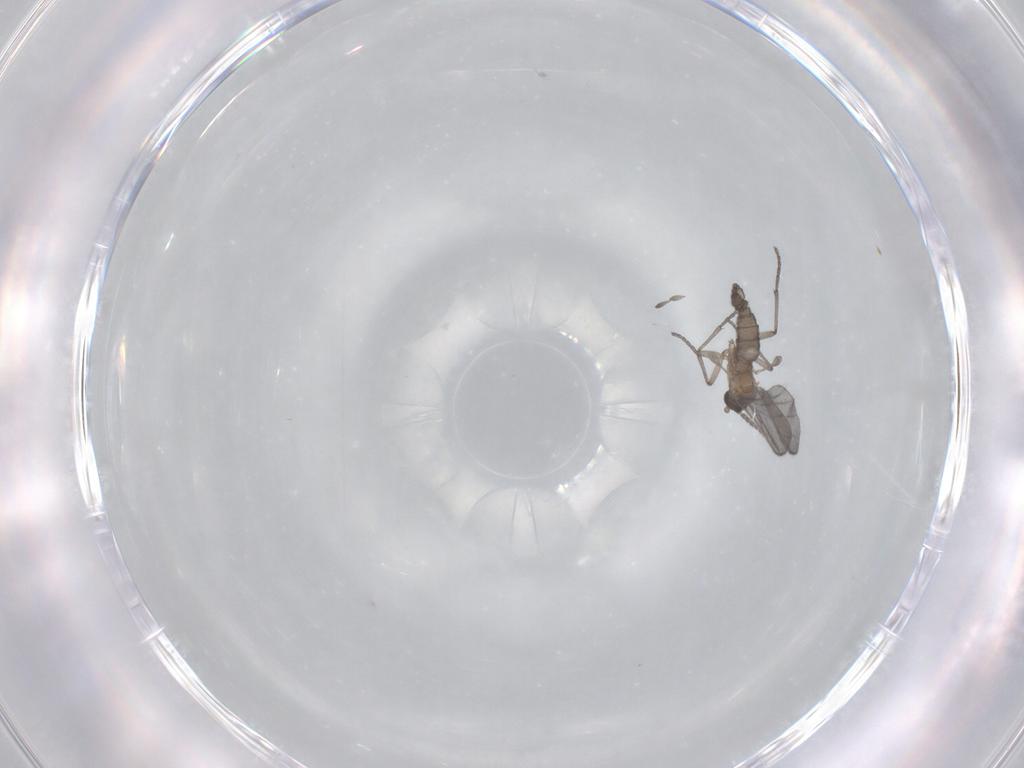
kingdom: Animalia
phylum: Arthropoda
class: Insecta
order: Diptera
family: Sciaridae
